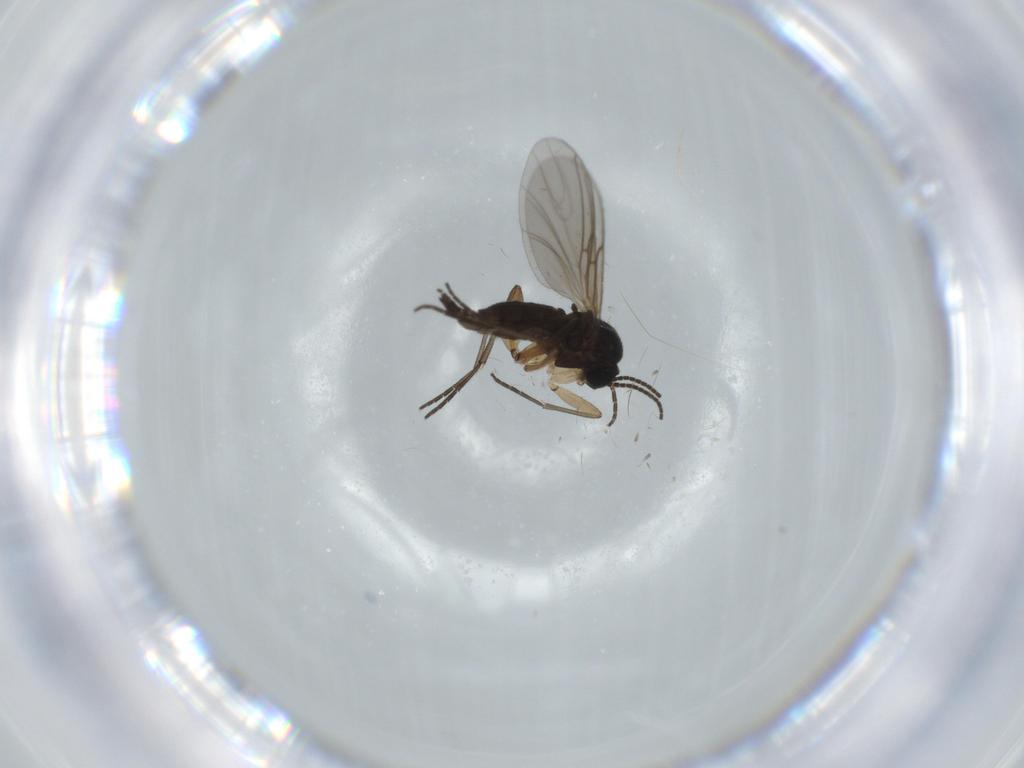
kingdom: Animalia
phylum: Arthropoda
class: Insecta
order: Diptera
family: Sciaridae
